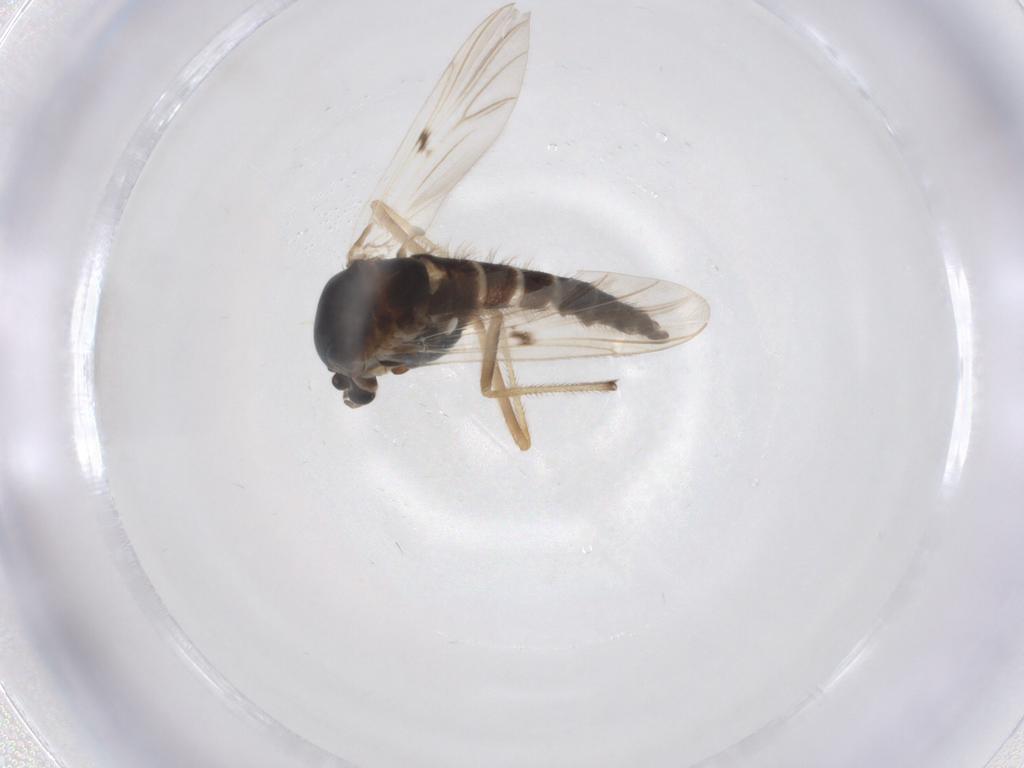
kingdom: Animalia
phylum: Arthropoda
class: Insecta
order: Diptera
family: Chironomidae
